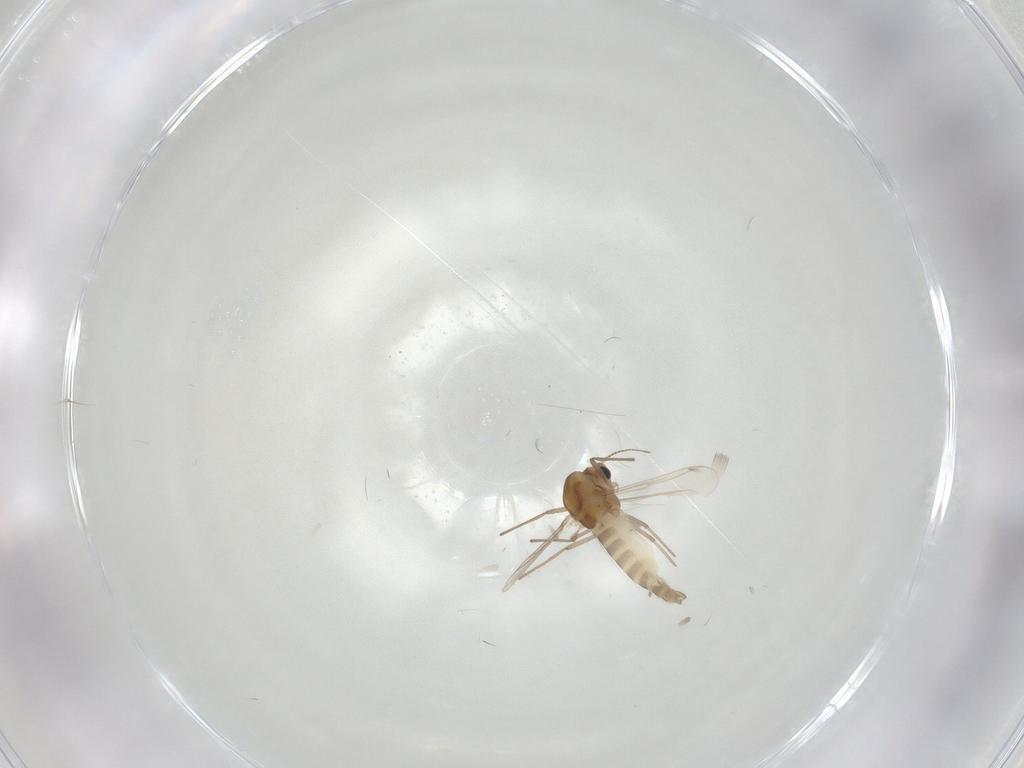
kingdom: Animalia
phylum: Arthropoda
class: Insecta
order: Diptera
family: Chironomidae
